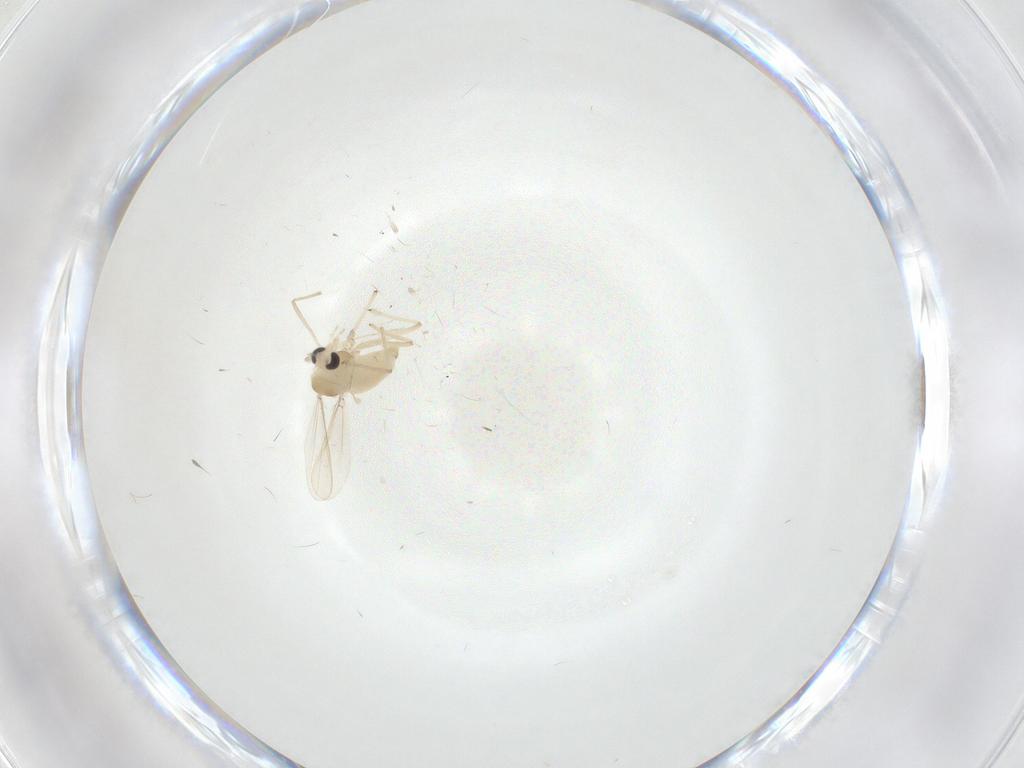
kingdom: Animalia
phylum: Arthropoda
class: Insecta
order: Diptera
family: Chironomidae
